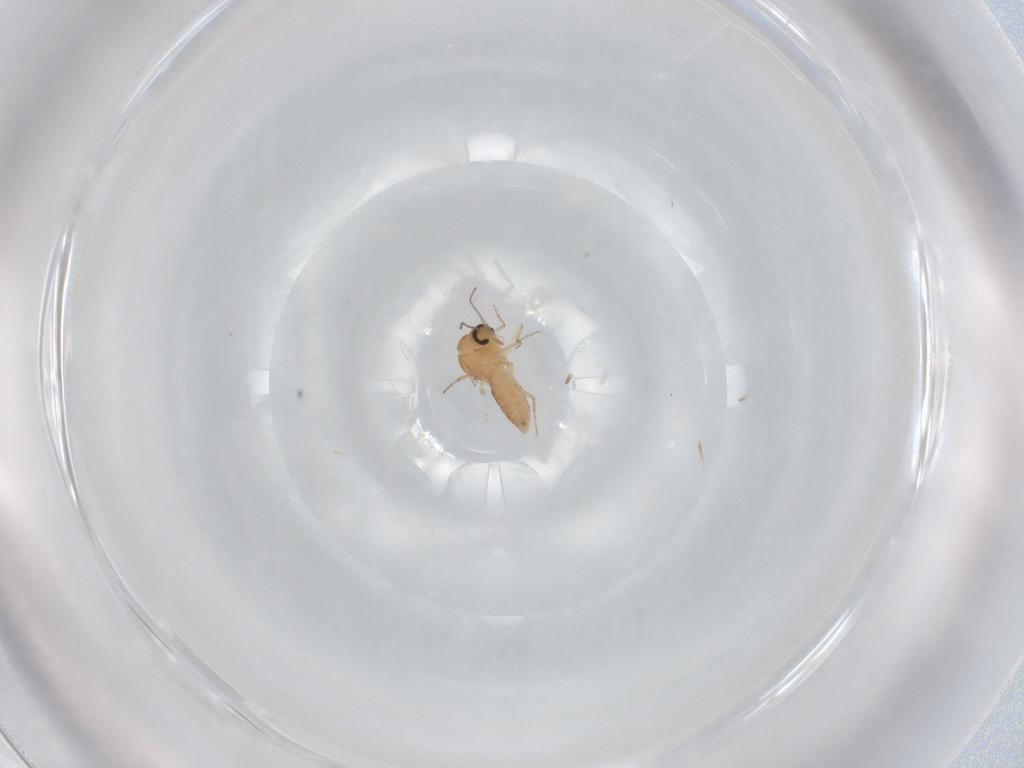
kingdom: Animalia
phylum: Arthropoda
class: Insecta
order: Diptera
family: Ceratopogonidae
